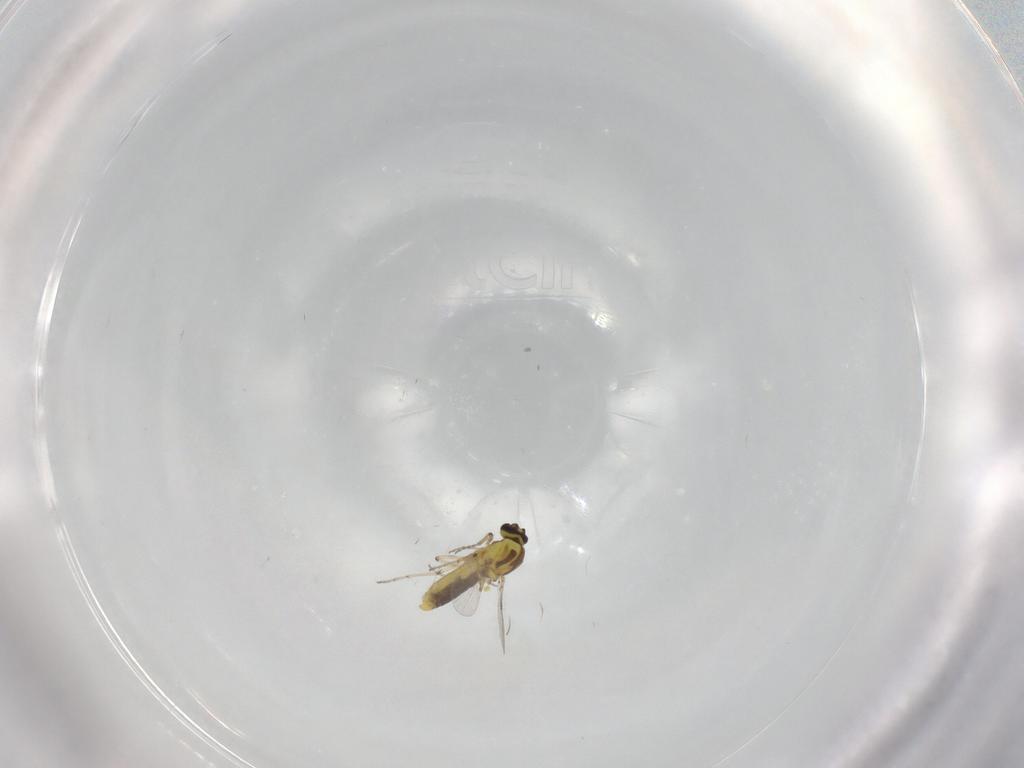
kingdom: Animalia
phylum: Arthropoda
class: Insecta
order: Diptera
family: Ceratopogonidae
